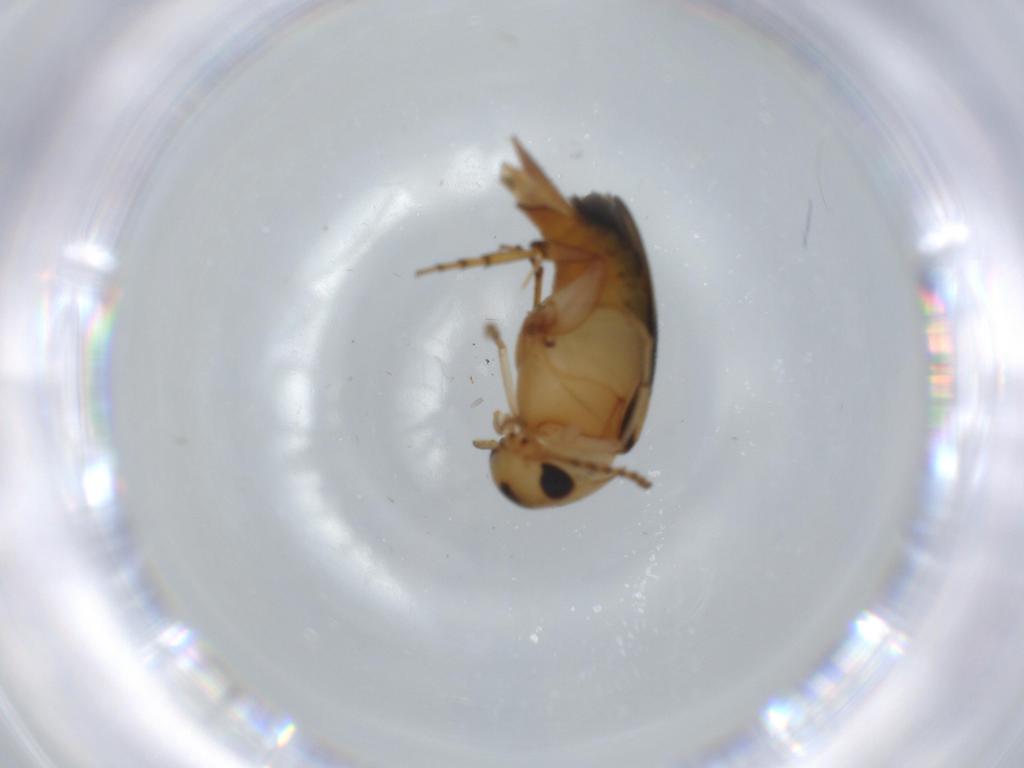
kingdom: Animalia
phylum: Arthropoda
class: Insecta
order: Coleoptera
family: Mordellidae
